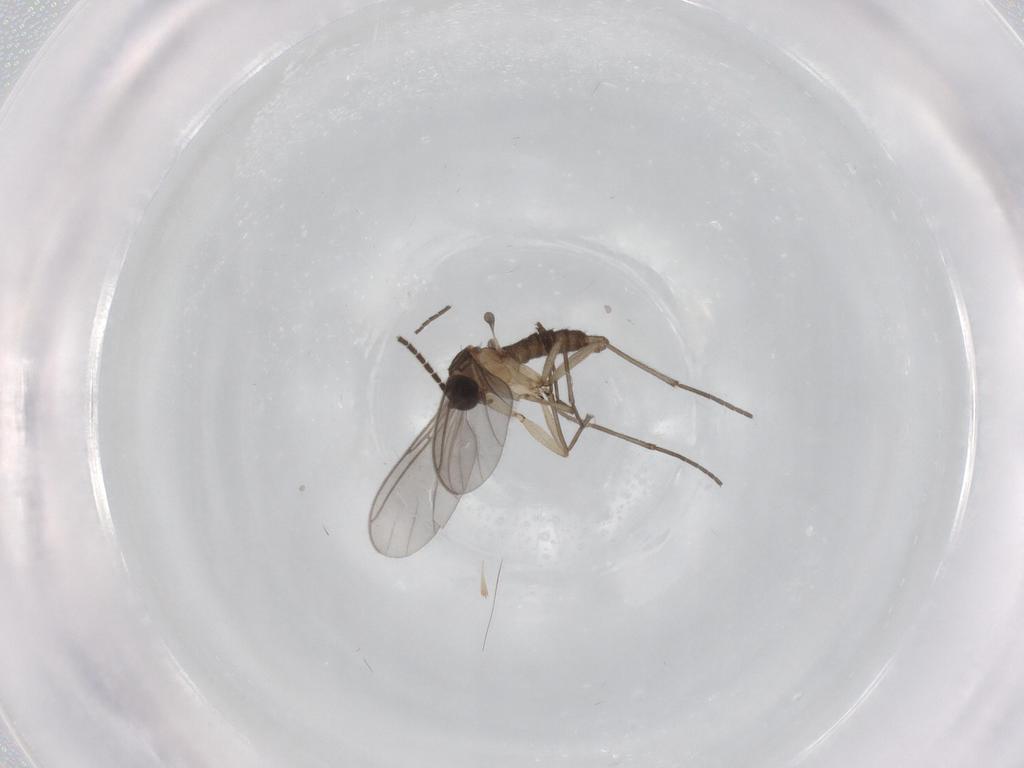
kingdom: Animalia
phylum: Arthropoda
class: Insecta
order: Diptera
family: Sciaridae
